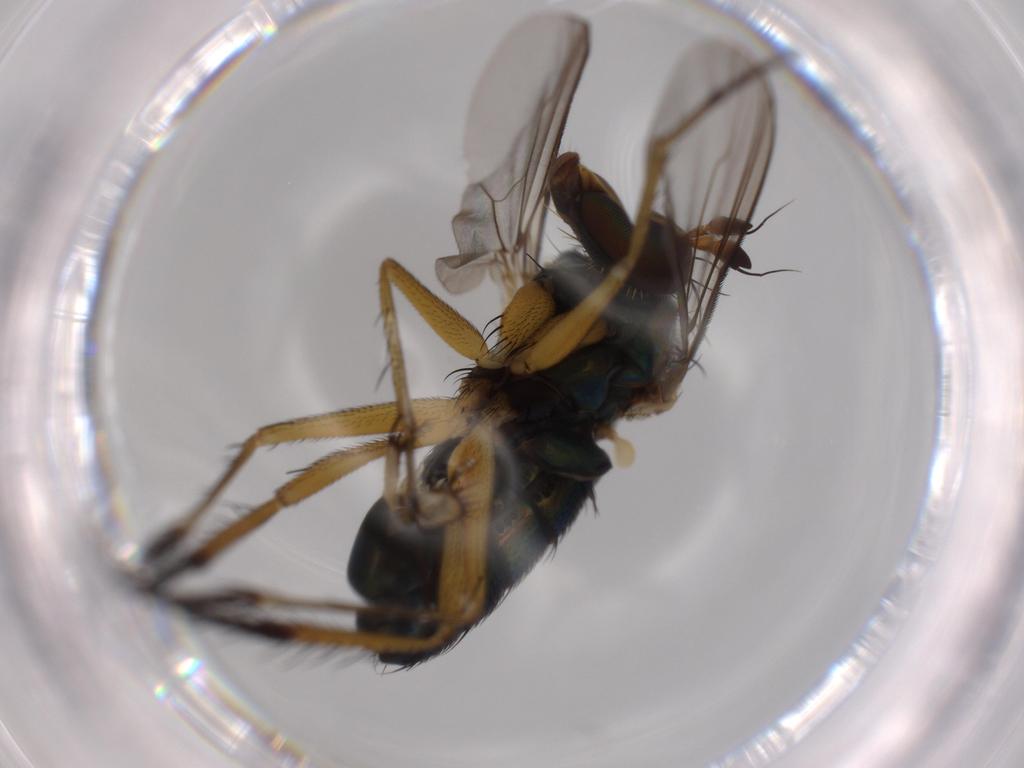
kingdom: Animalia
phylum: Arthropoda
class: Insecta
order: Diptera
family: Dolichopodidae
